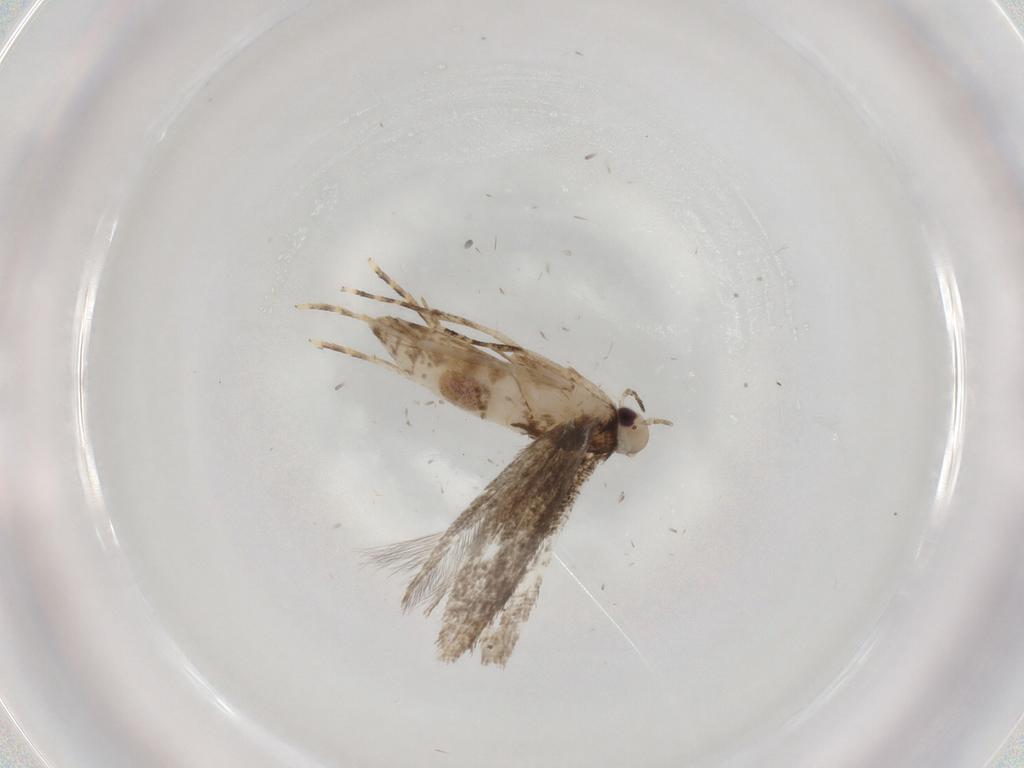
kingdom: Animalia
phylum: Arthropoda
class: Insecta
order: Lepidoptera
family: Cosmopterigidae
